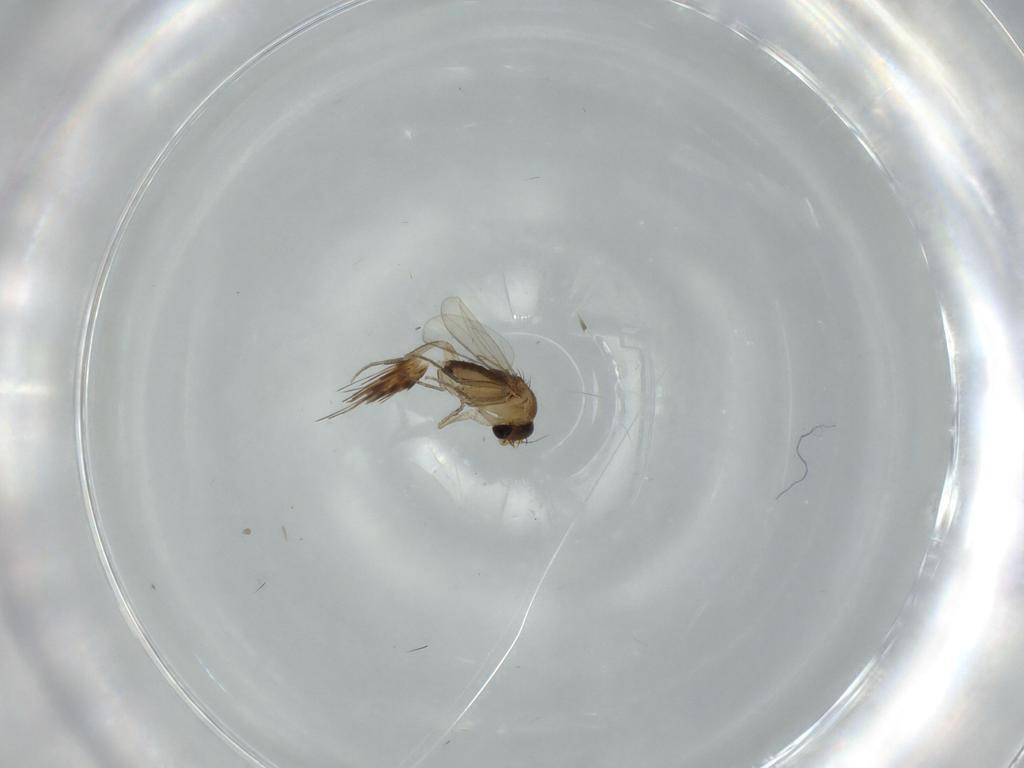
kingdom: Animalia
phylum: Arthropoda
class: Insecta
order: Diptera
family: Phoridae
